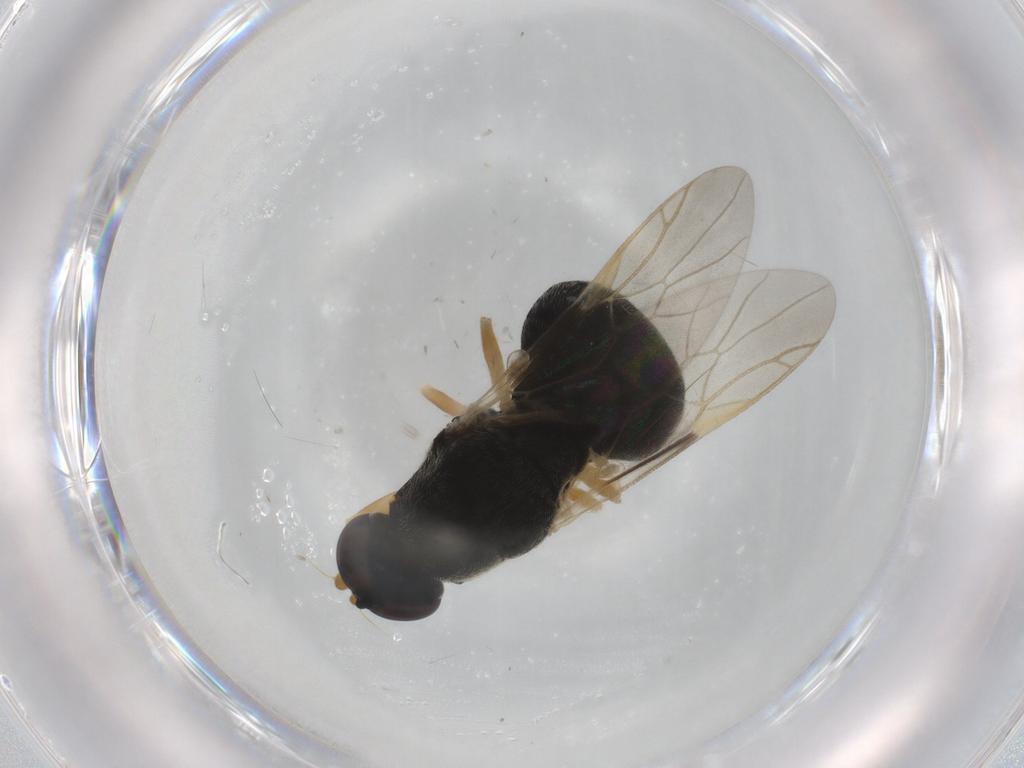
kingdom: Animalia
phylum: Arthropoda
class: Insecta
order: Diptera
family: Stratiomyidae
